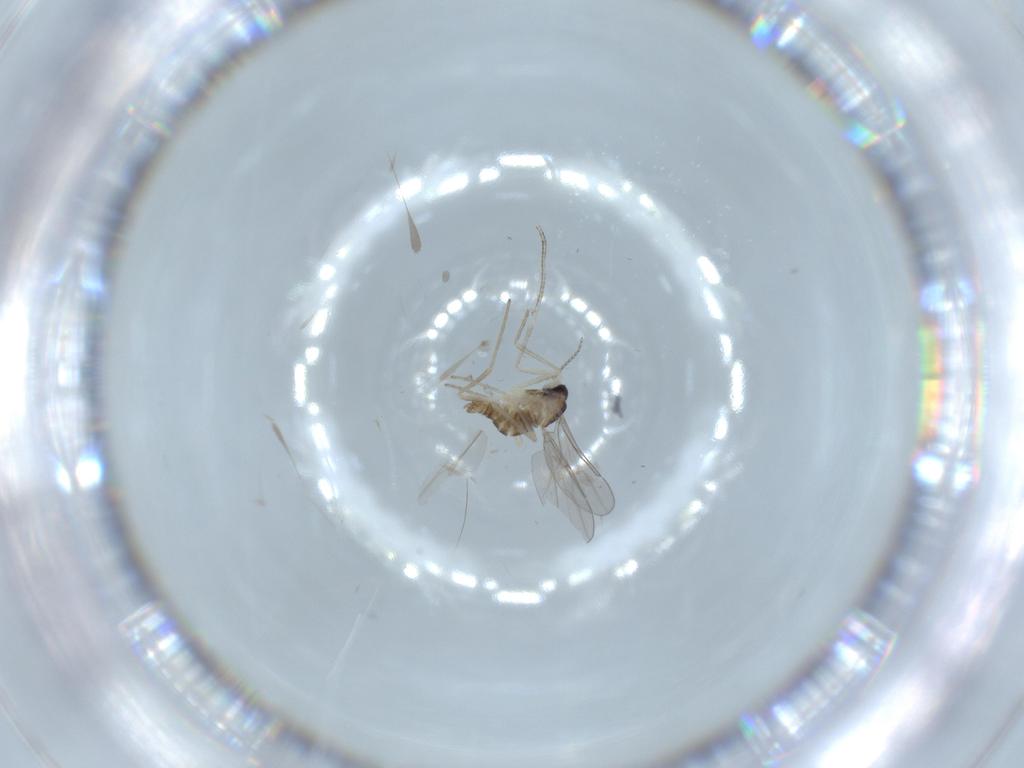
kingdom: Animalia
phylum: Arthropoda
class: Insecta
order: Diptera
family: Cecidomyiidae
